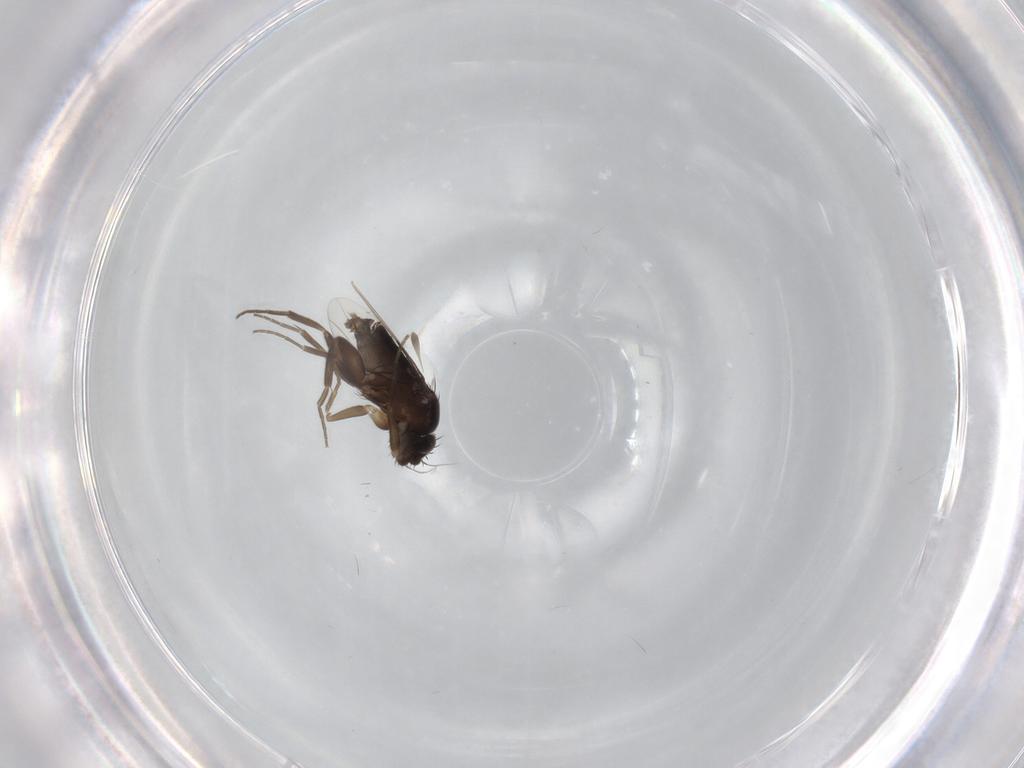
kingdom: Animalia
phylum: Arthropoda
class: Insecta
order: Diptera
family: Phoridae
